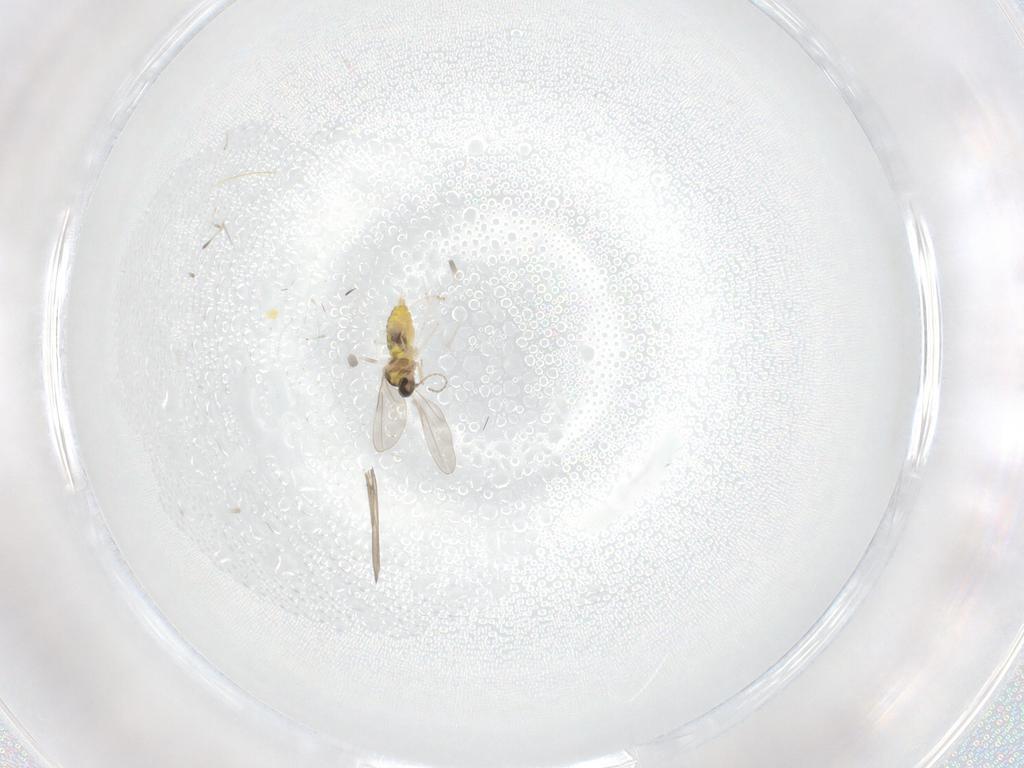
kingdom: Animalia
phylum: Arthropoda
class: Insecta
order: Diptera
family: Cecidomyiidae
